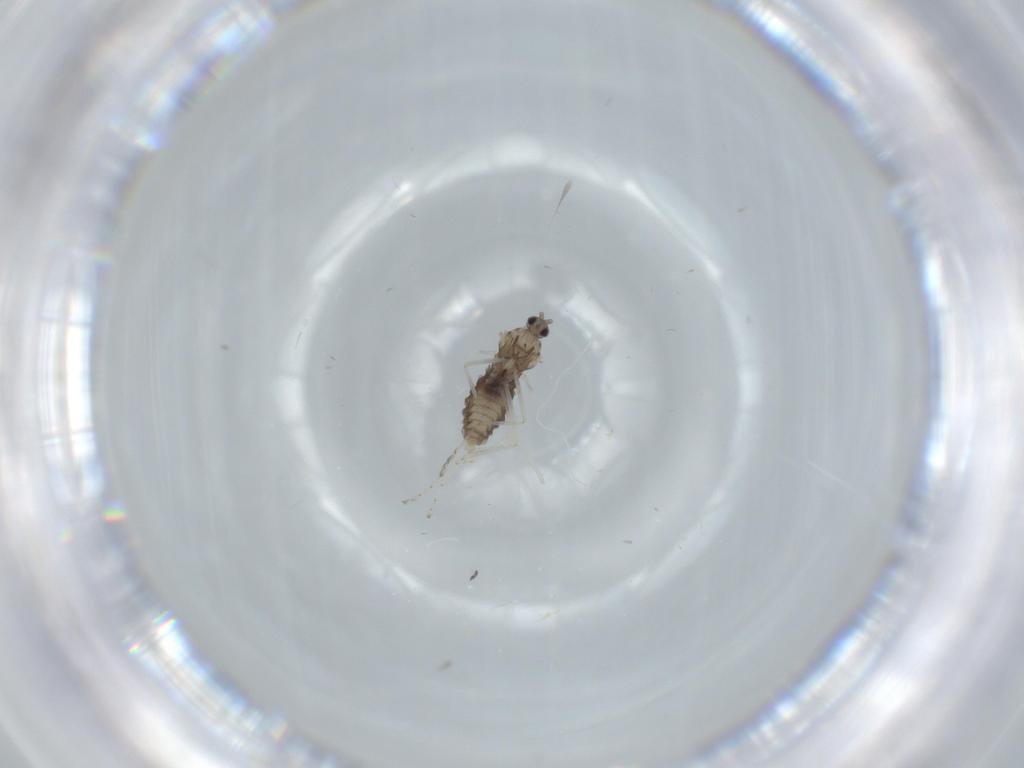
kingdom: Animalia
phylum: Arthropoda
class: Insecta
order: Diptera
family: Cecidomyiidae
